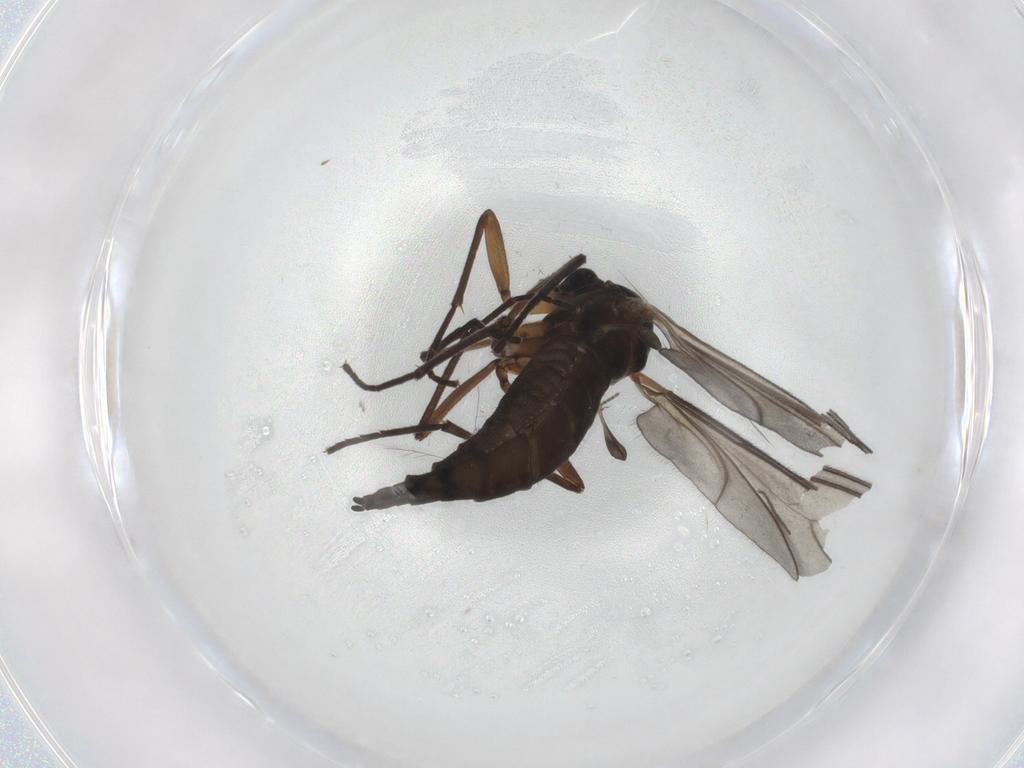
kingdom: Animalia
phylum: Arthropoda
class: Insecta
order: Diptera
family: Sciaridae
